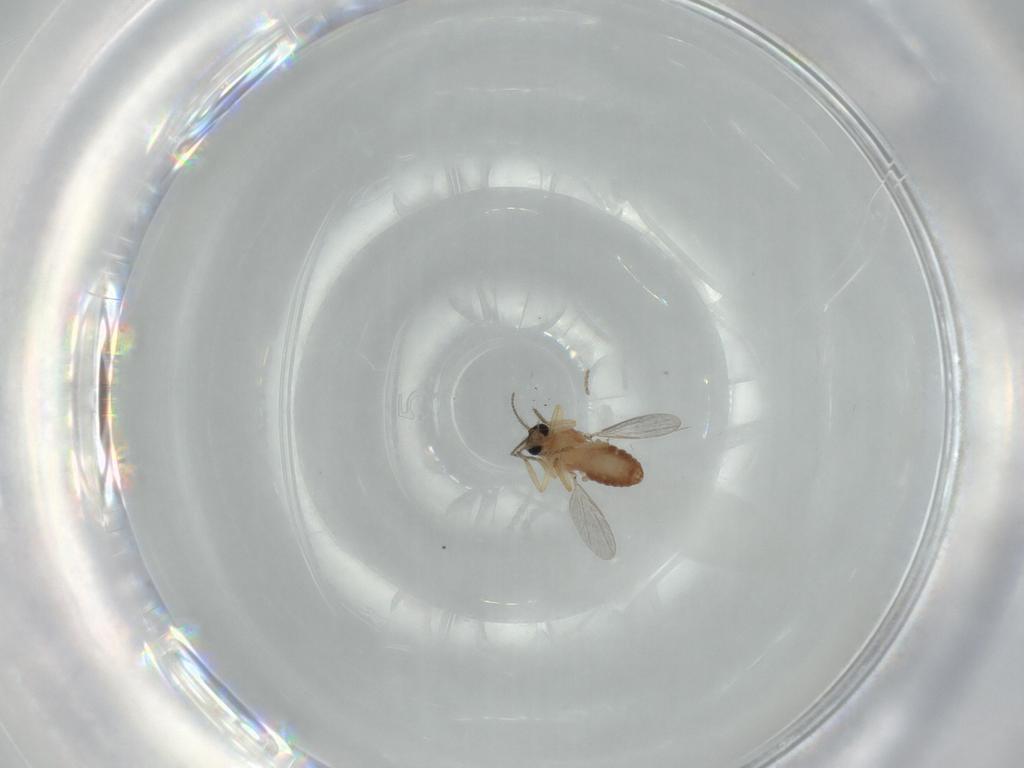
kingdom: Animalia
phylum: Arthropoda
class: Insecta
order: Diptera
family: Ceratopogonidae
